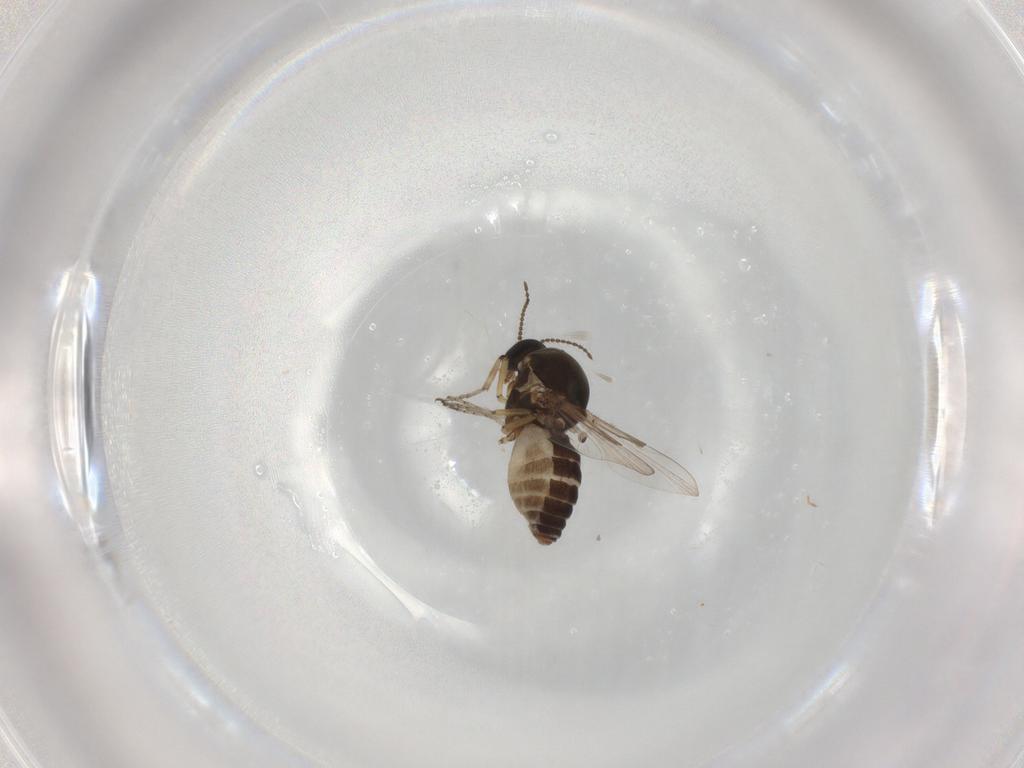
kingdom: Animalia
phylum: Arthropoda
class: Insecta
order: Diptera
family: Ceratopogonidae
